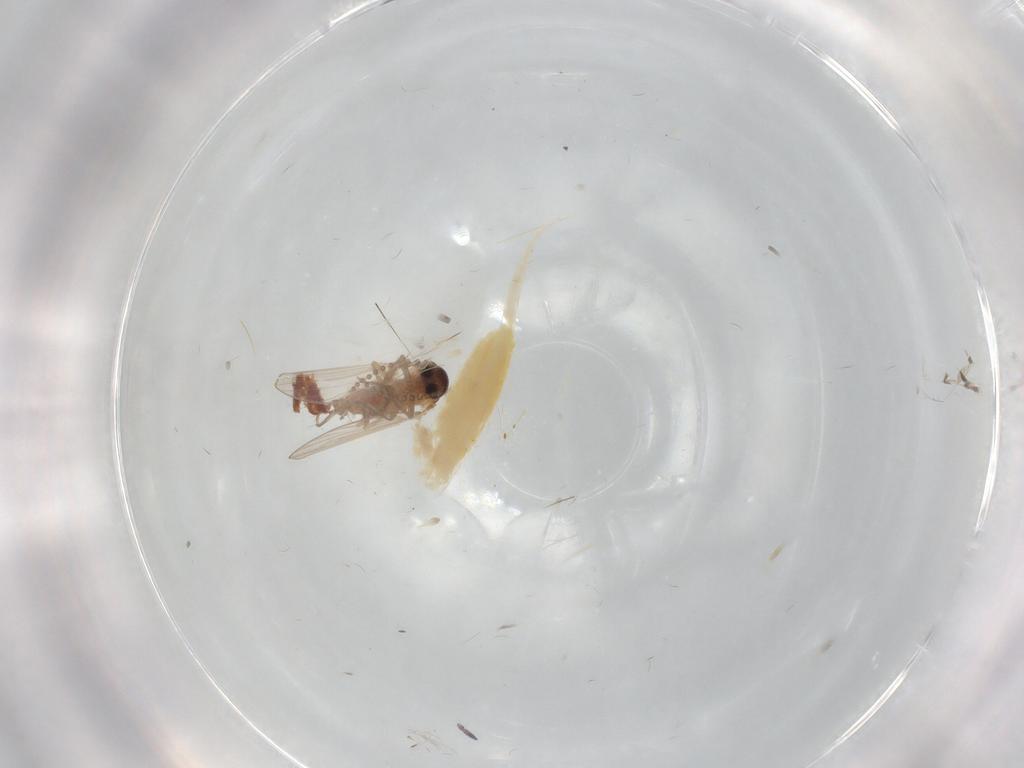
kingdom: Animalia
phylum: Arthropoda
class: Insecta
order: Diptera
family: Psychodidae
